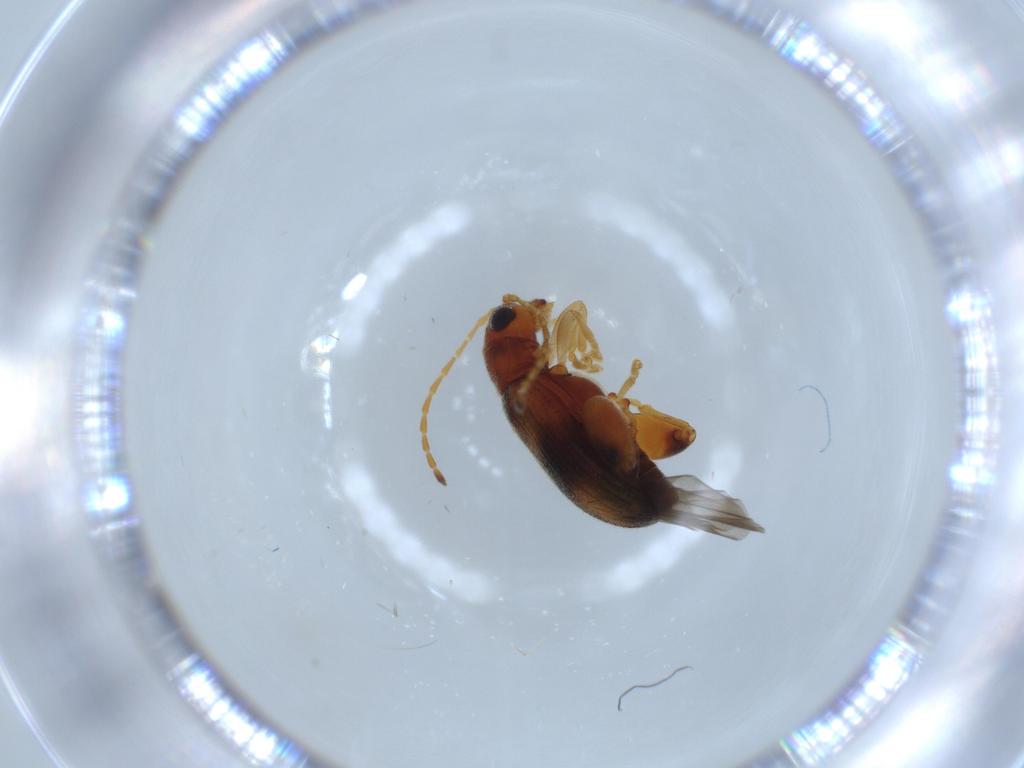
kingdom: Animalia
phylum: Arthropoda
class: Insecta
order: Coleoptera
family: Chrysomelidae
